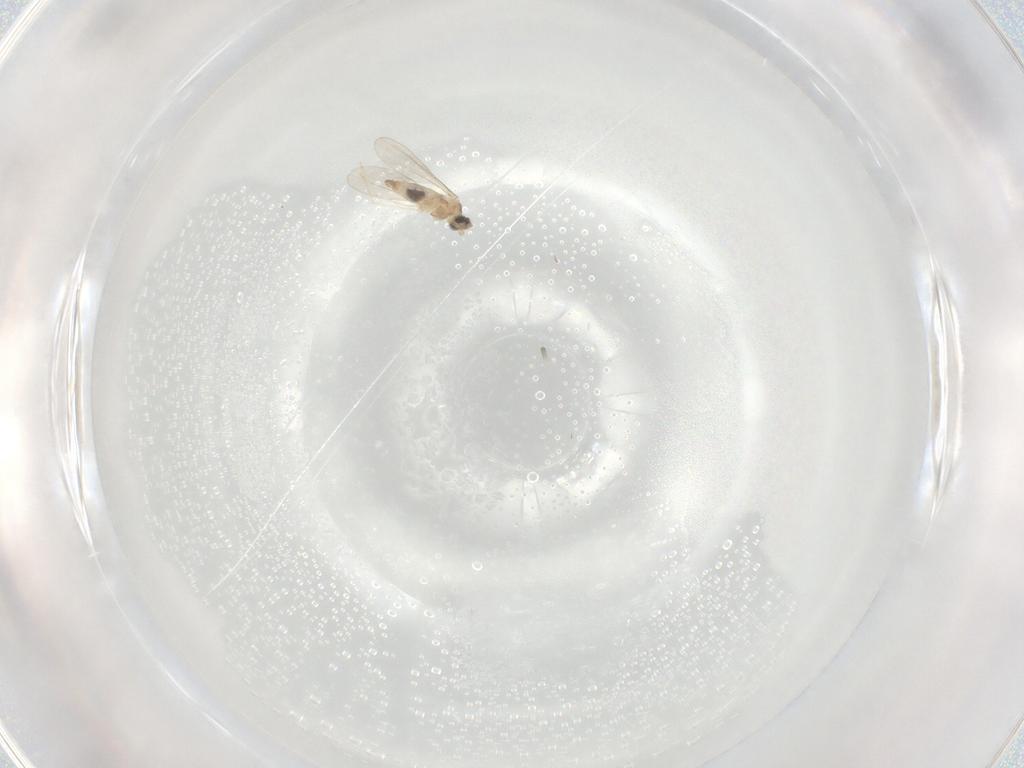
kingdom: Animalia
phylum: Arthropoda
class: Insecta
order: Diptera
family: Cecidomyiidae
